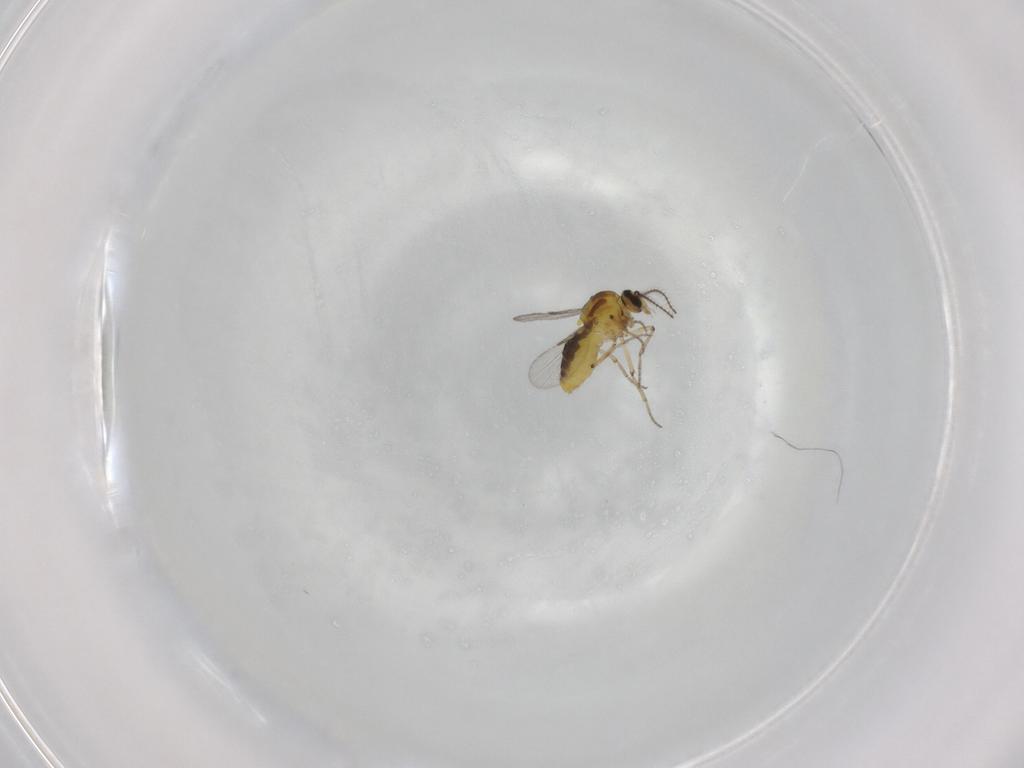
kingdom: Animalia
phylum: Arthropoda
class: Insecta
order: Diptera
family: Ceratopogonidae
